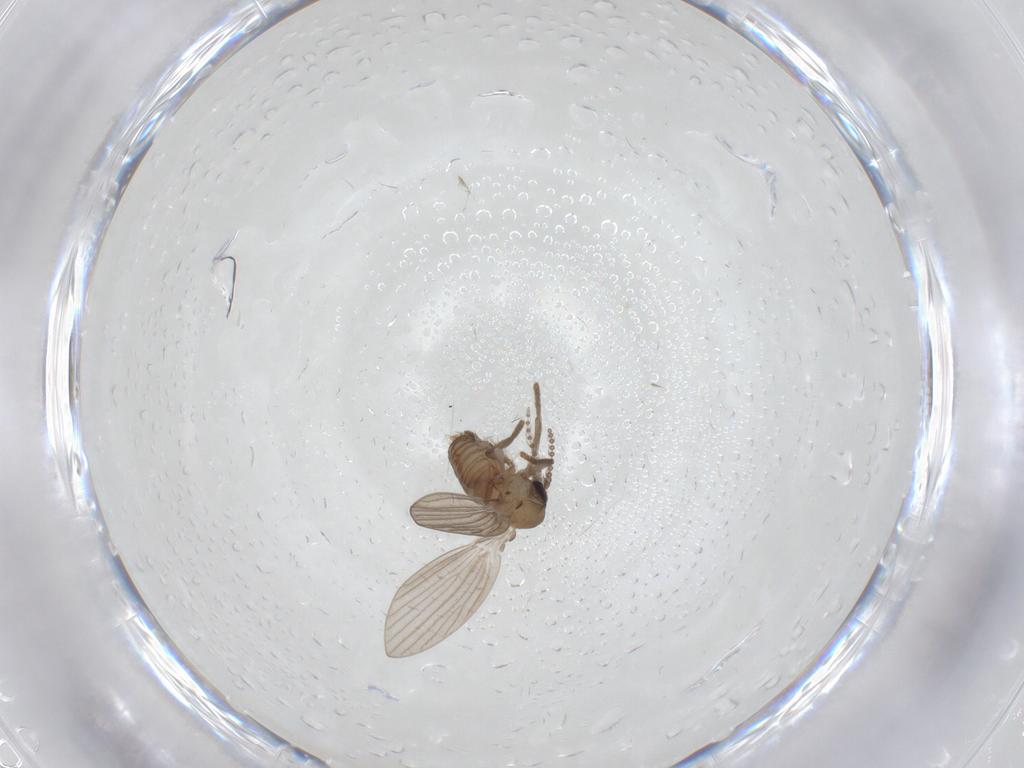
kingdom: Animalia
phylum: Arthropoda
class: Insecta
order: Diptera
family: Psychodidae
